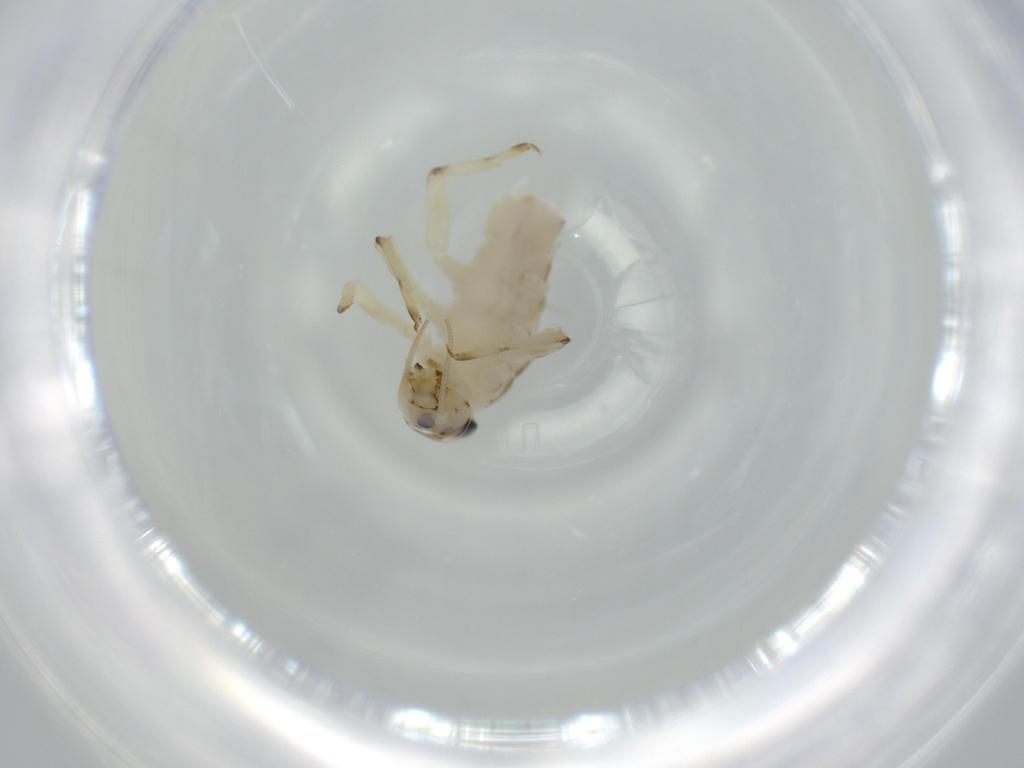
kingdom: Animalia
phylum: Arthropoda
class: Insecta
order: Ephemeroptera
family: Baetidae
